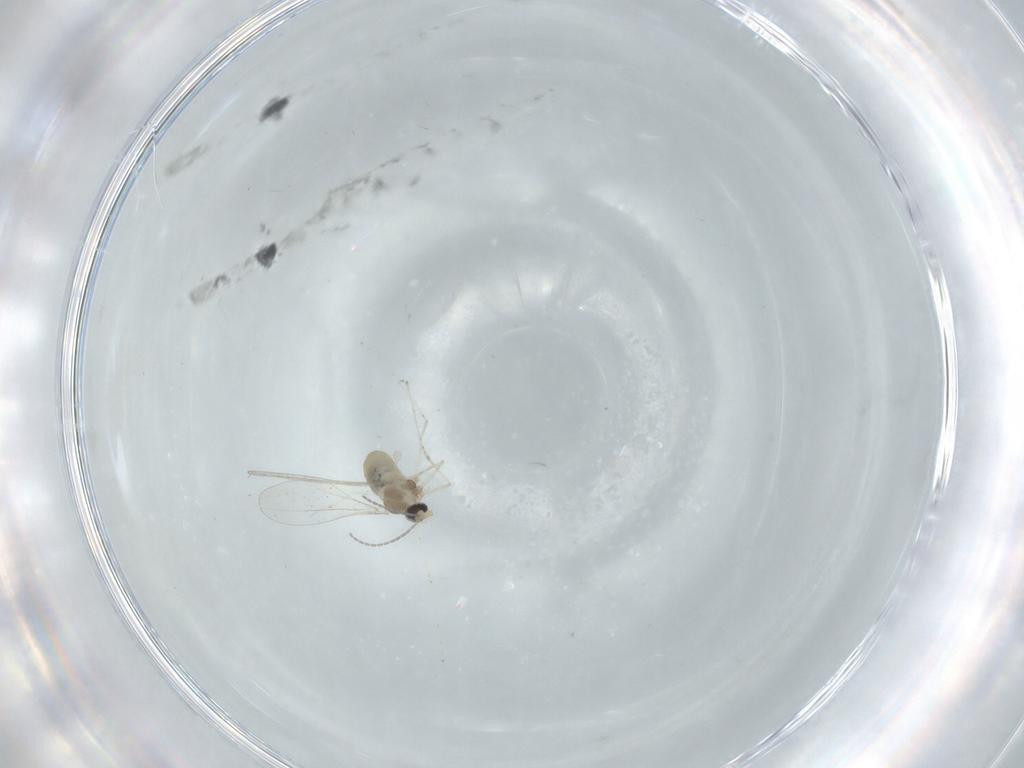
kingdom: Animalia
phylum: Arthropoda
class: Insecta
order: Diptera
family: Cecidomyiidae
